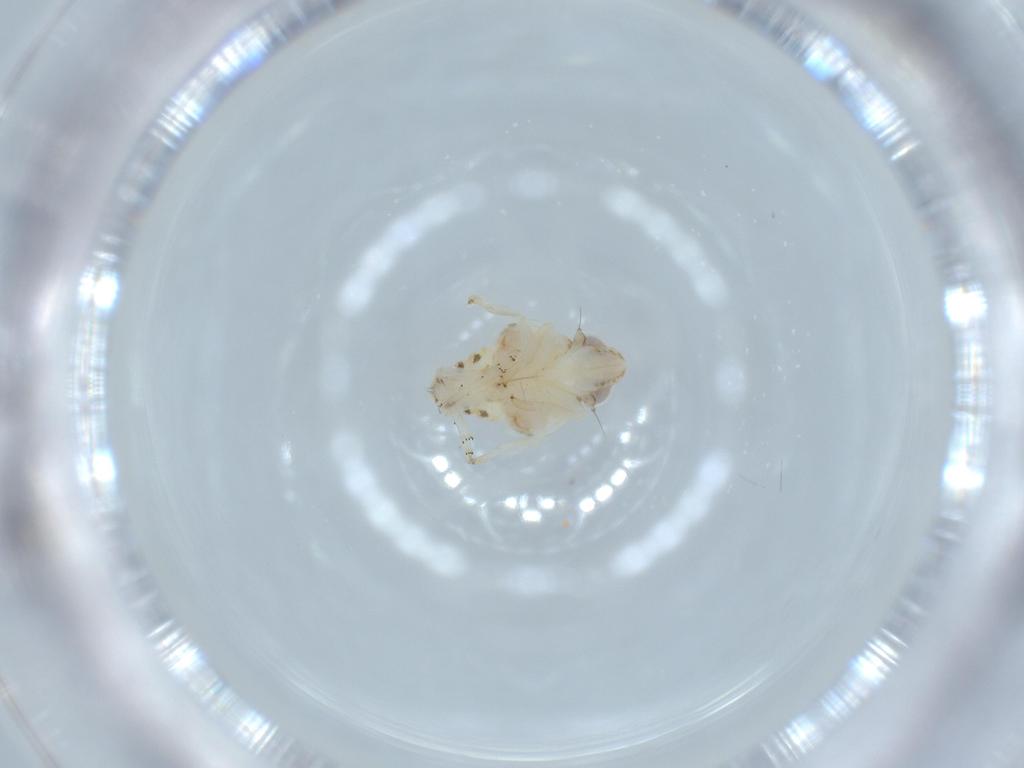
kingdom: Animalia
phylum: Arthropoda
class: Insecta
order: Hemiptera
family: Nogodinidae
